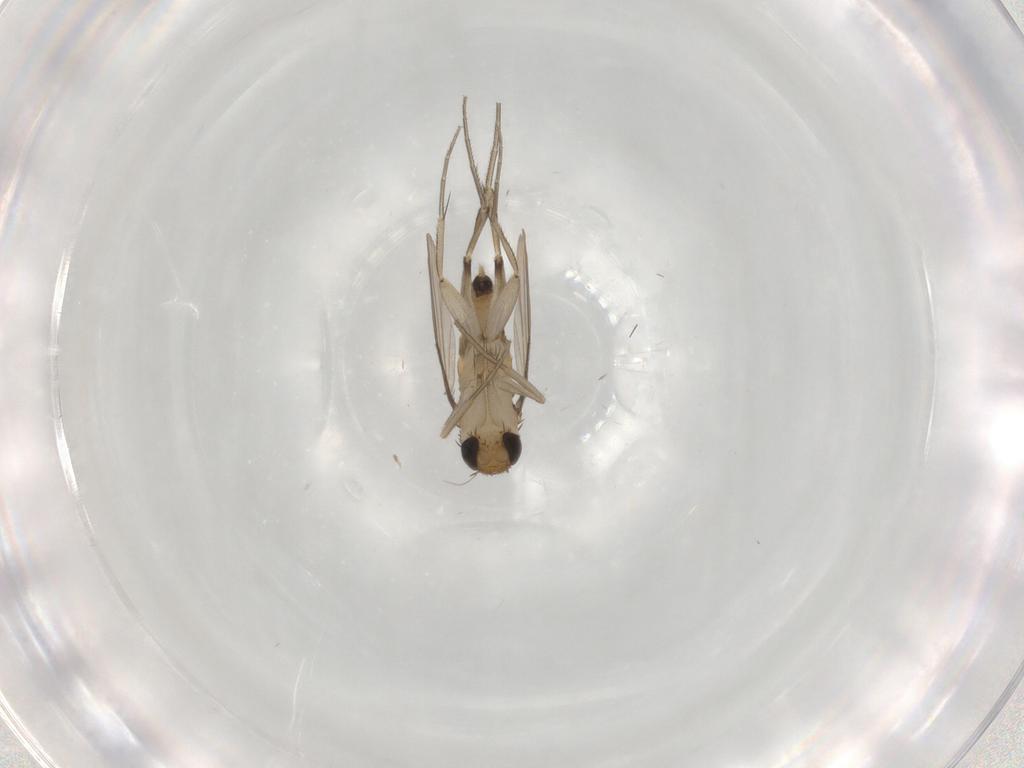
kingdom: Animalia
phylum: Arthropoda
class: Insecta
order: Diptera
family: Ceratopogonidae
